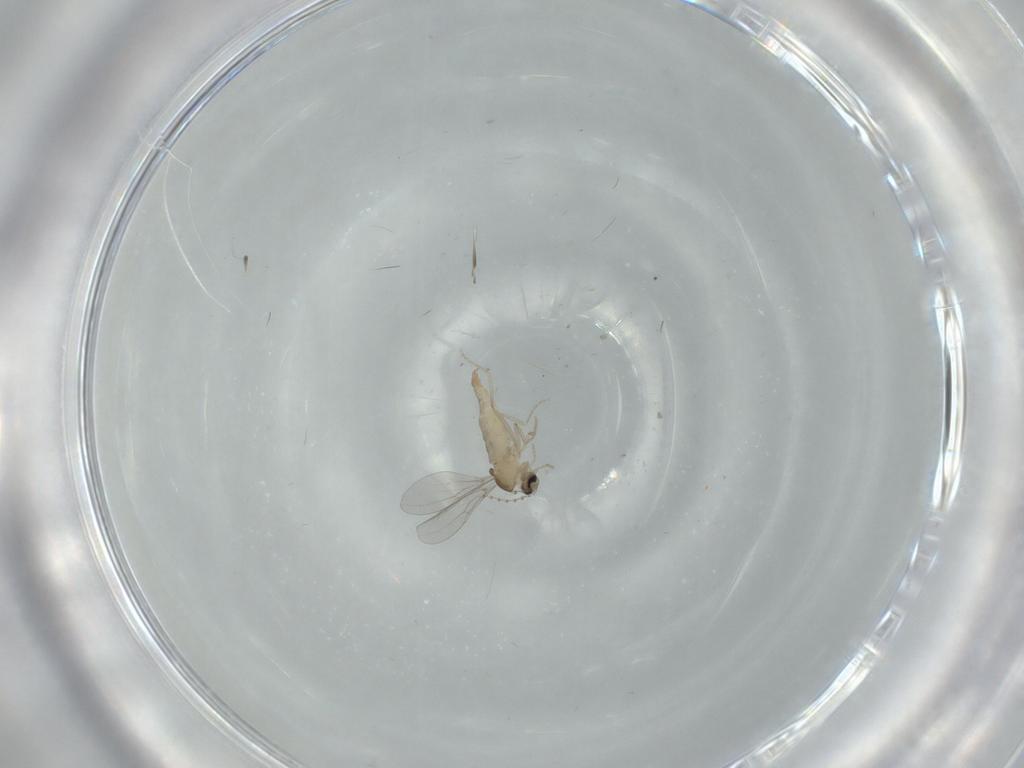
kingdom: Animalia
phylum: Arthropoda
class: Insecta
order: Diptera
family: Cecidomyiidae
